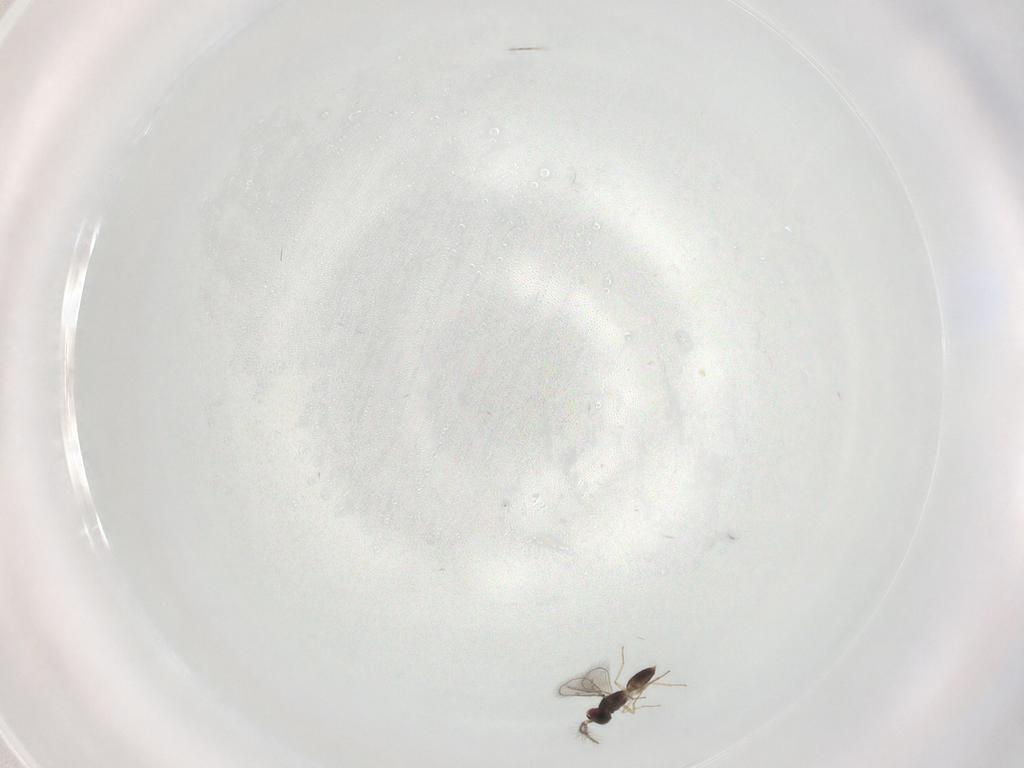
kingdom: Animalia
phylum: Arthropoda
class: Insecta
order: Hymenoptera
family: Eulophidae
